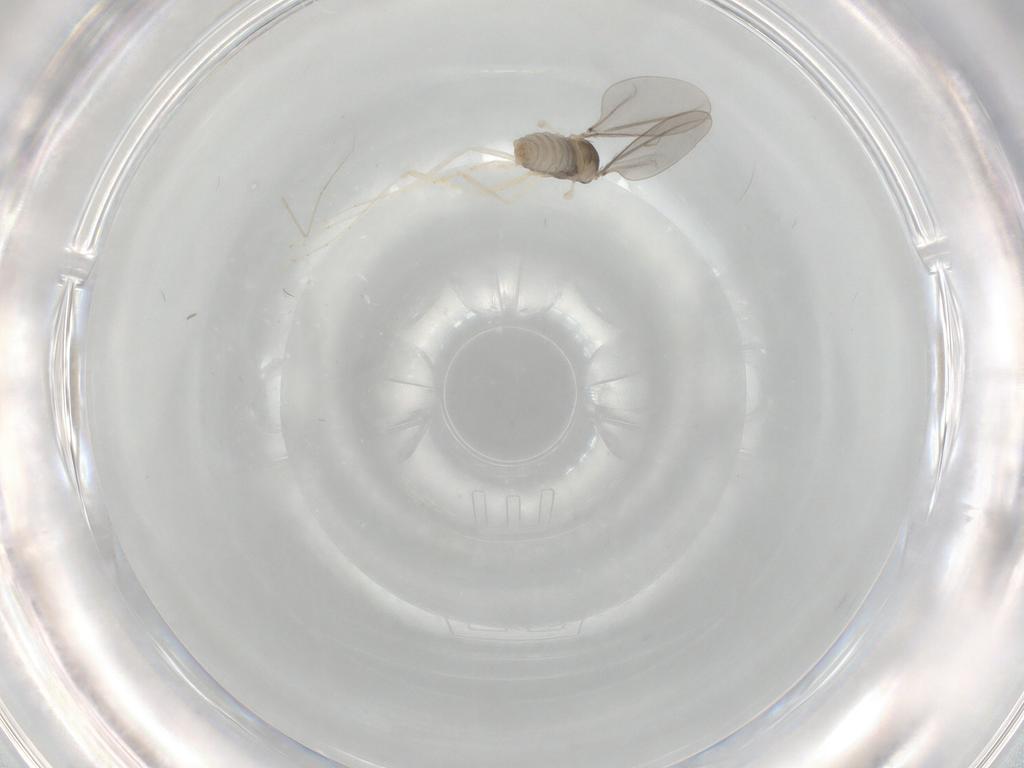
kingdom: Animalia
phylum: Arthropoda
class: Insecta
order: Diptera
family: Cecidomyiidae
